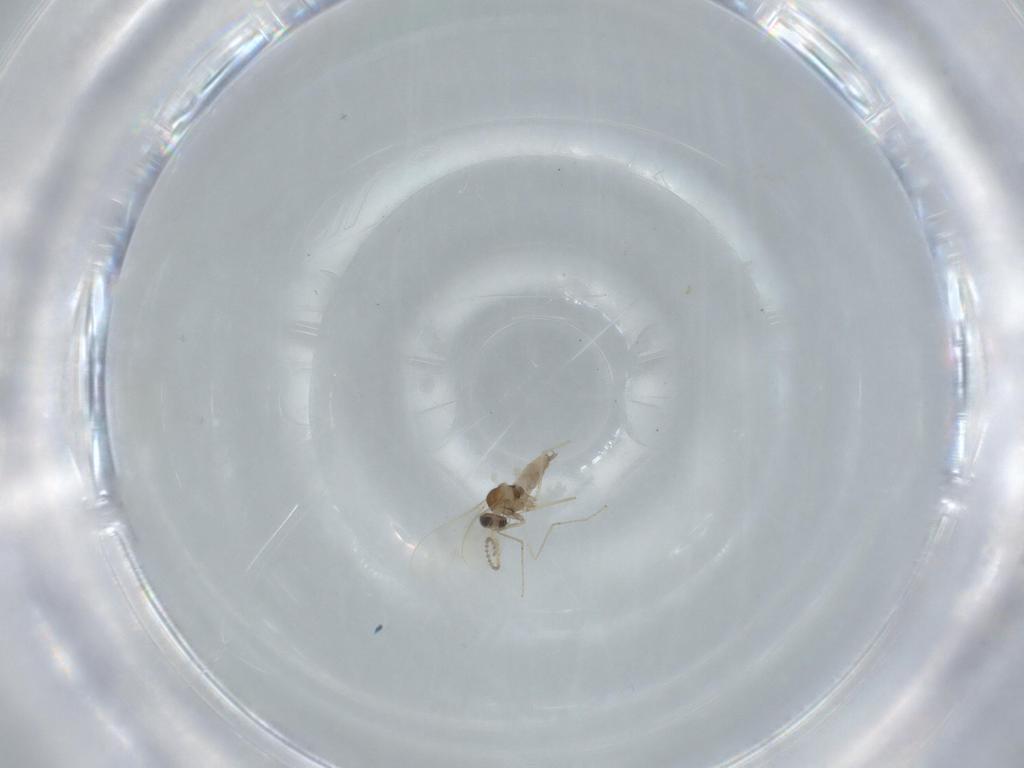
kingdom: Animalia
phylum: Arthropoda
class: Insecta
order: Diptera
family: Cecidomyiidae
